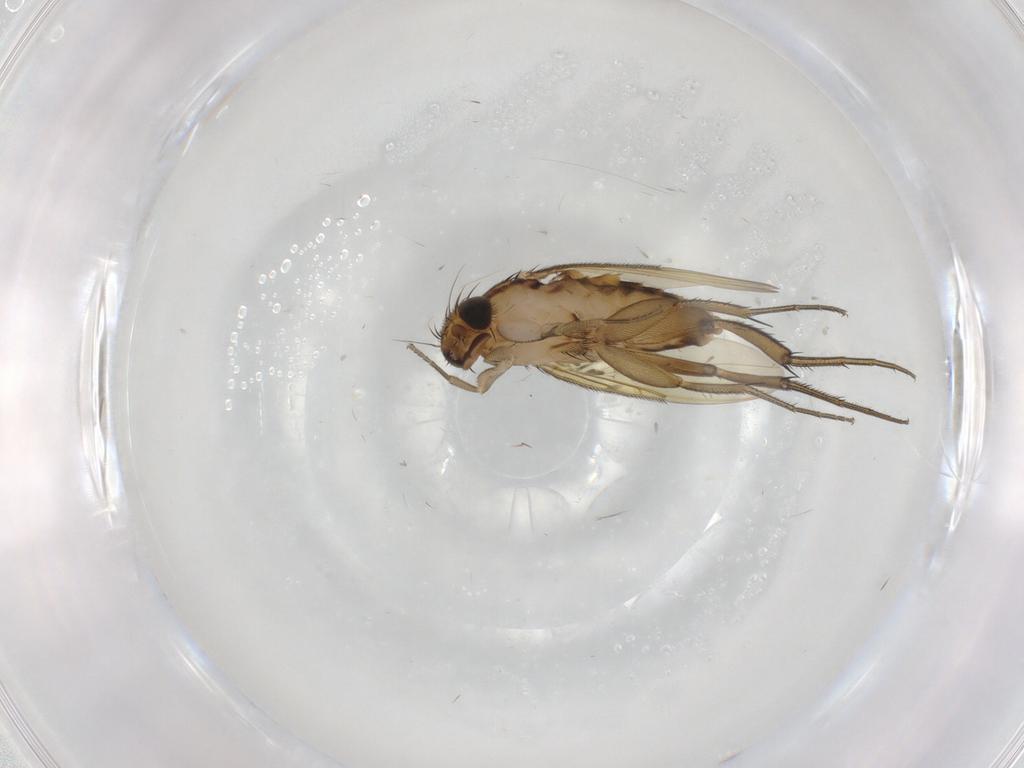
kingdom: Animalia
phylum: Arthropoda
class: Insecta
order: Diptera
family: Phoridae
